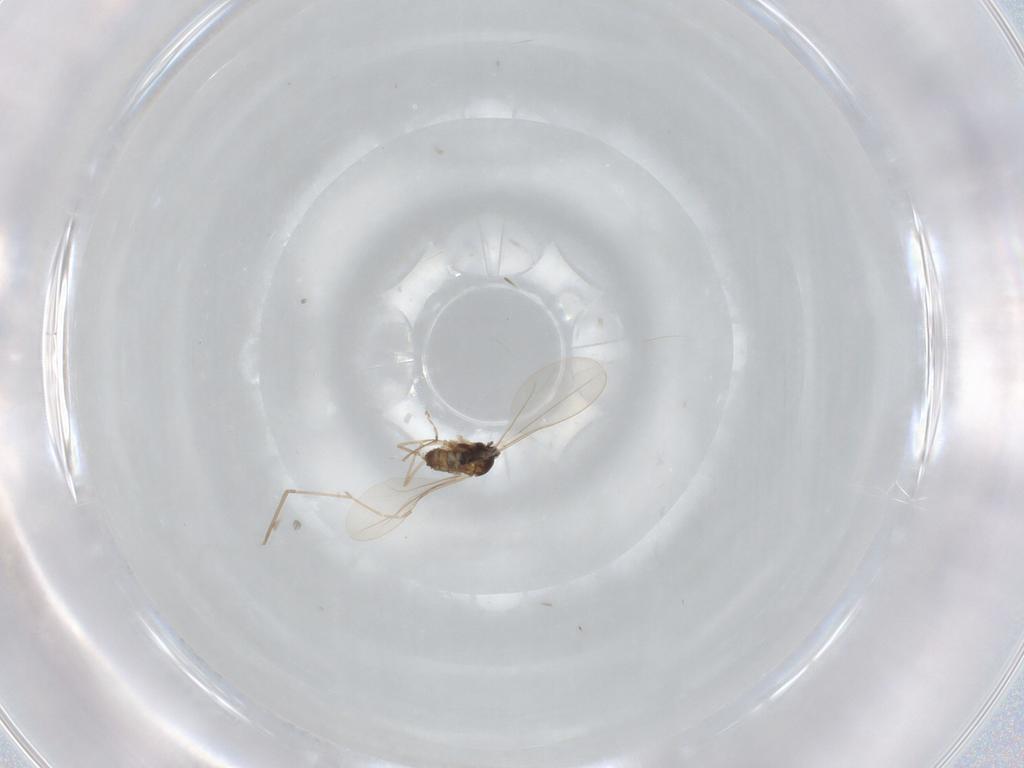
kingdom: Animalia
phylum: Arthropoda
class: Insecta
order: Diptera
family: Cecidomyiidae
